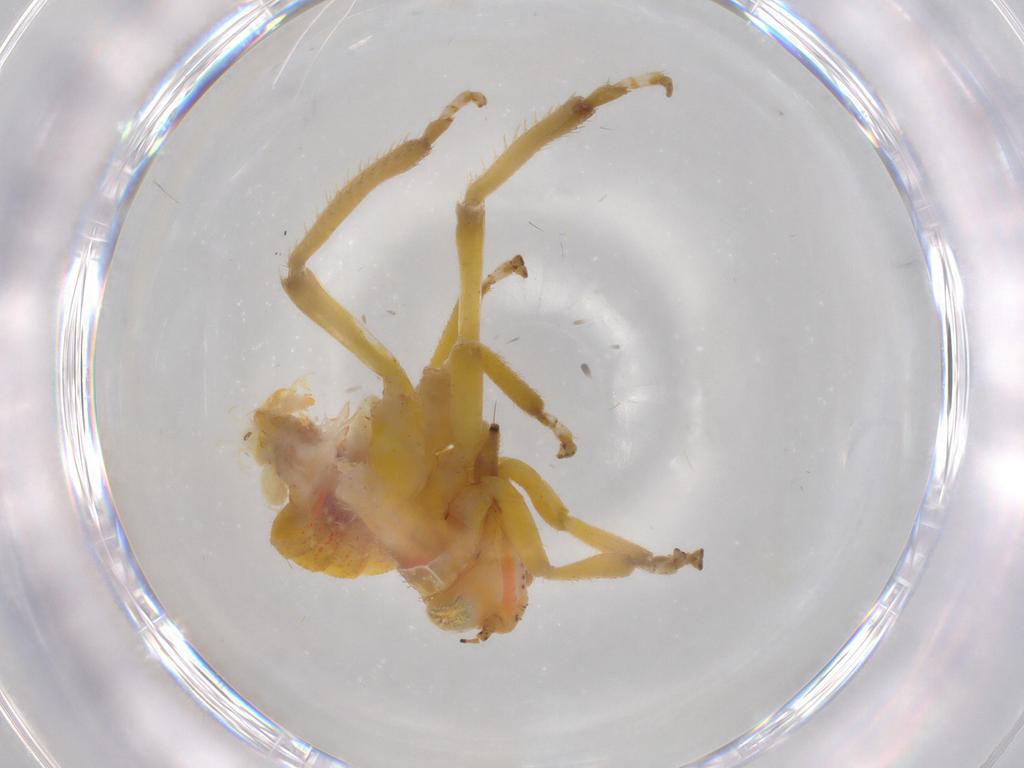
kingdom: Animalia
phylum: Arthropoda
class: Insecta
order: Hemiptera
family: Cicadellidae
